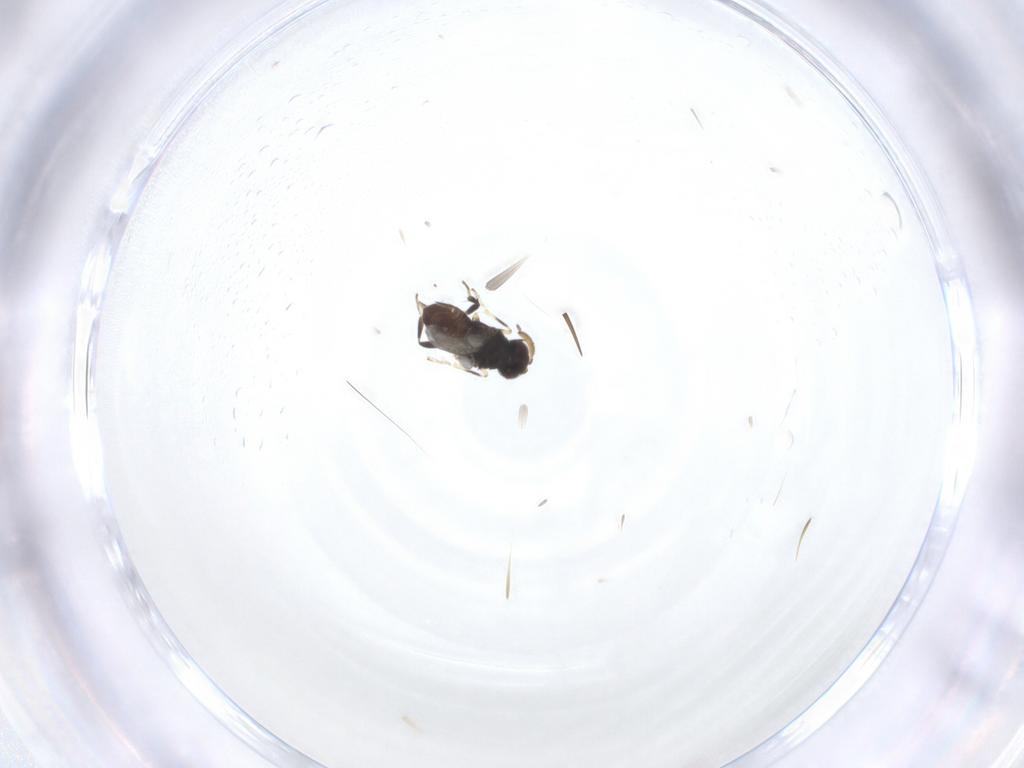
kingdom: Animalia
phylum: Arthropoda
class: Insecta
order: Hymenoptera
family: Encyrtidae
